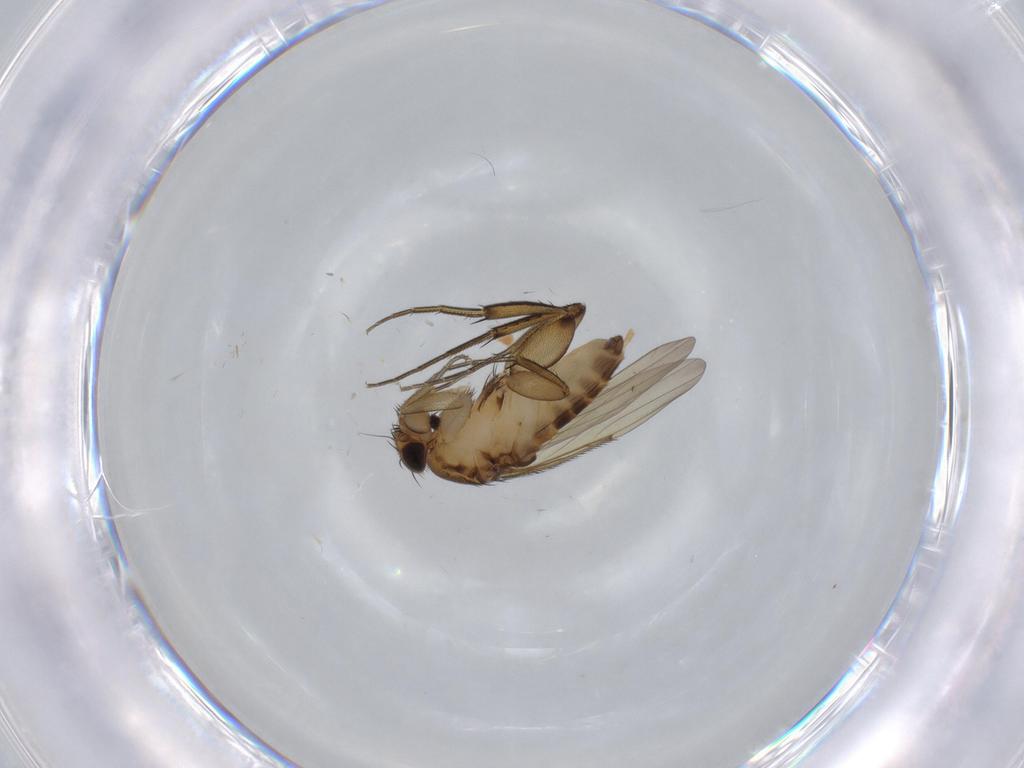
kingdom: Animalia
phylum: Arthropoda
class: Insecta
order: Diptera
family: Phoridae
